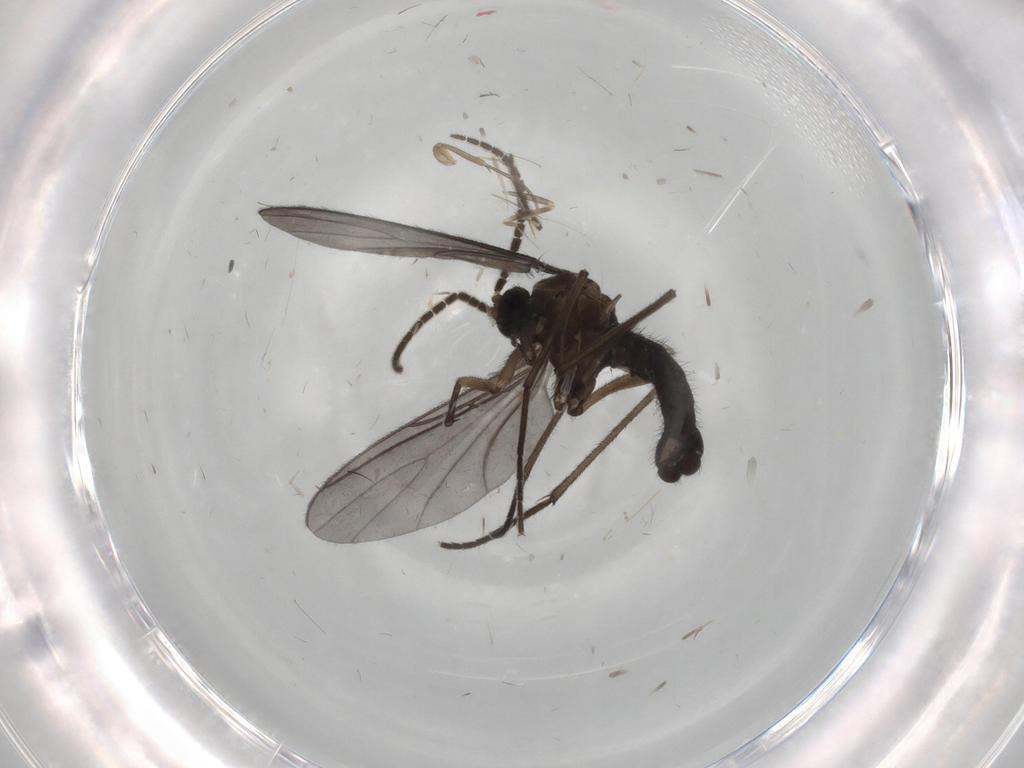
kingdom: Animalia
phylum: Arthropoda
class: Insecta
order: Diptera
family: Sciaridae
